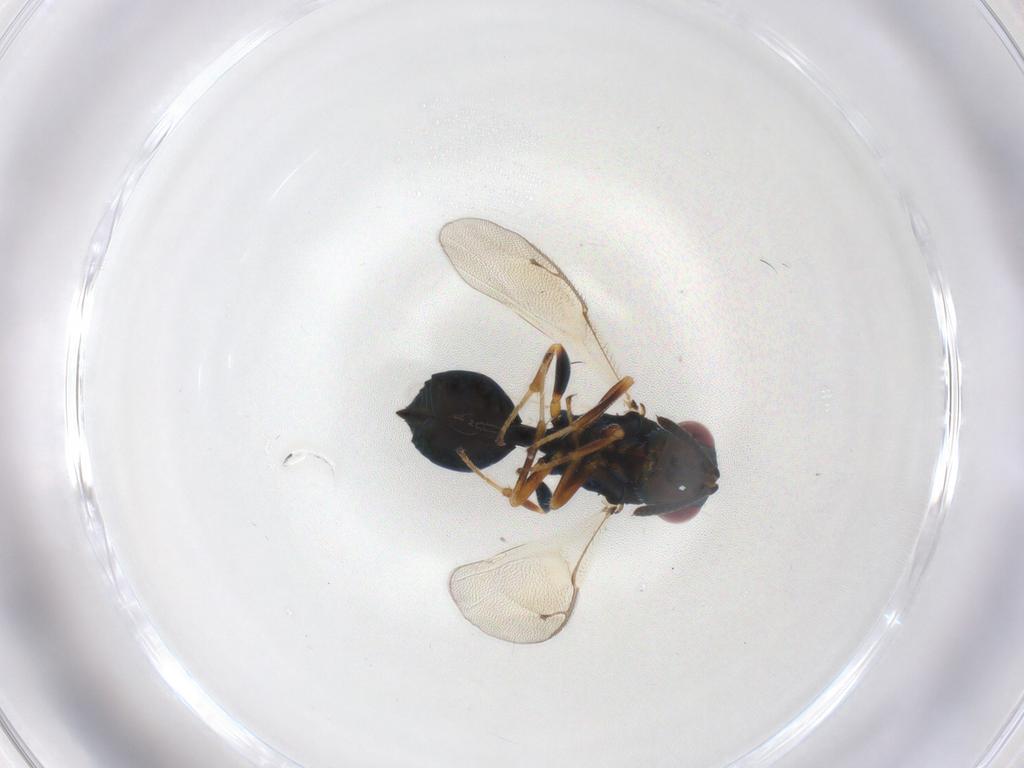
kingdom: Animalia
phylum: Arthropoda
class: Insecta
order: Hymenoptera
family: Pteromalidae
